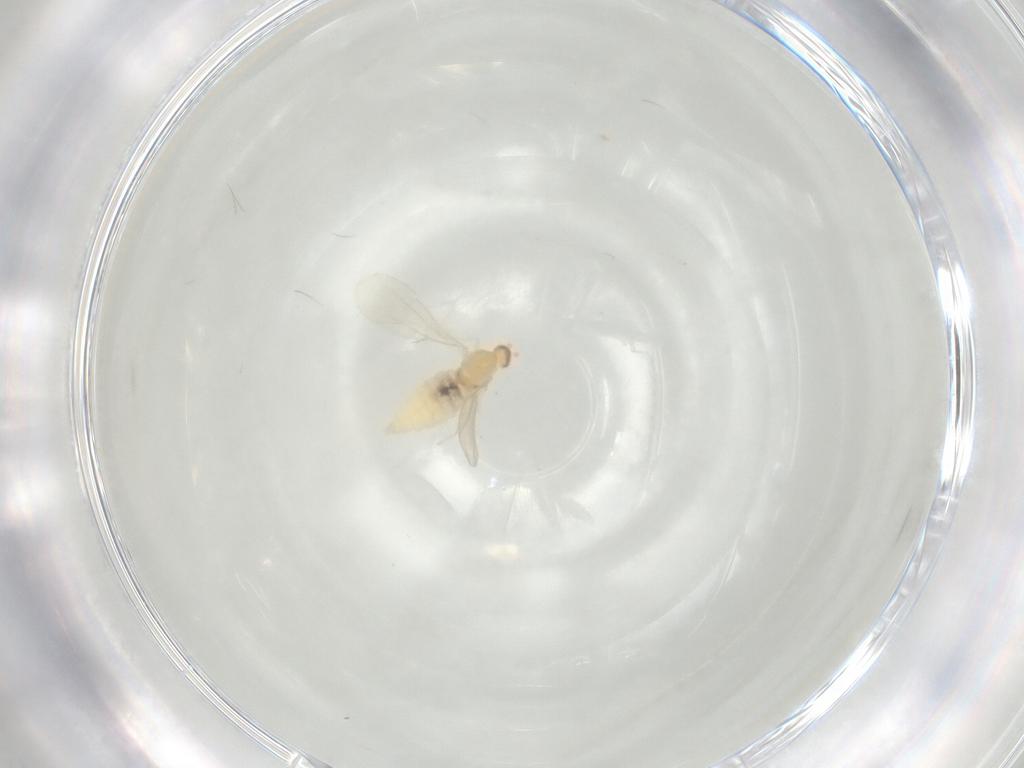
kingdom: Animalia
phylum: Arthropoda
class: Insecta
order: Diptera
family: Cecidomyiidae
